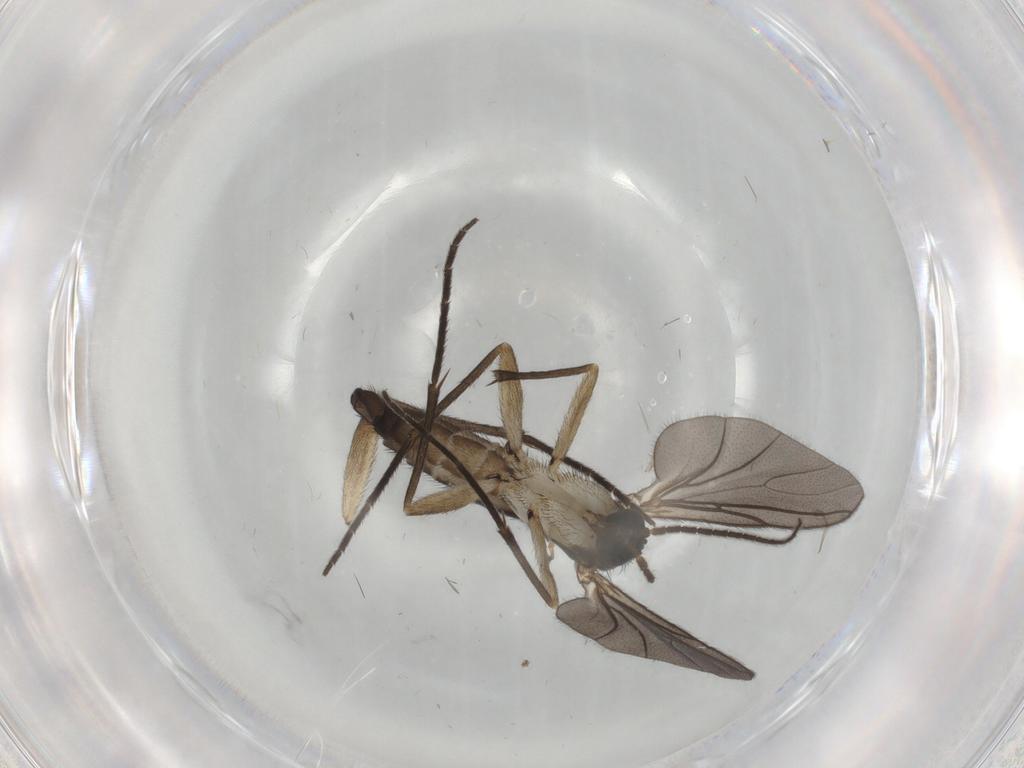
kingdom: Animalia
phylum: Arthropoda
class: Insecta
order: Diptera
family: Sciaridae
